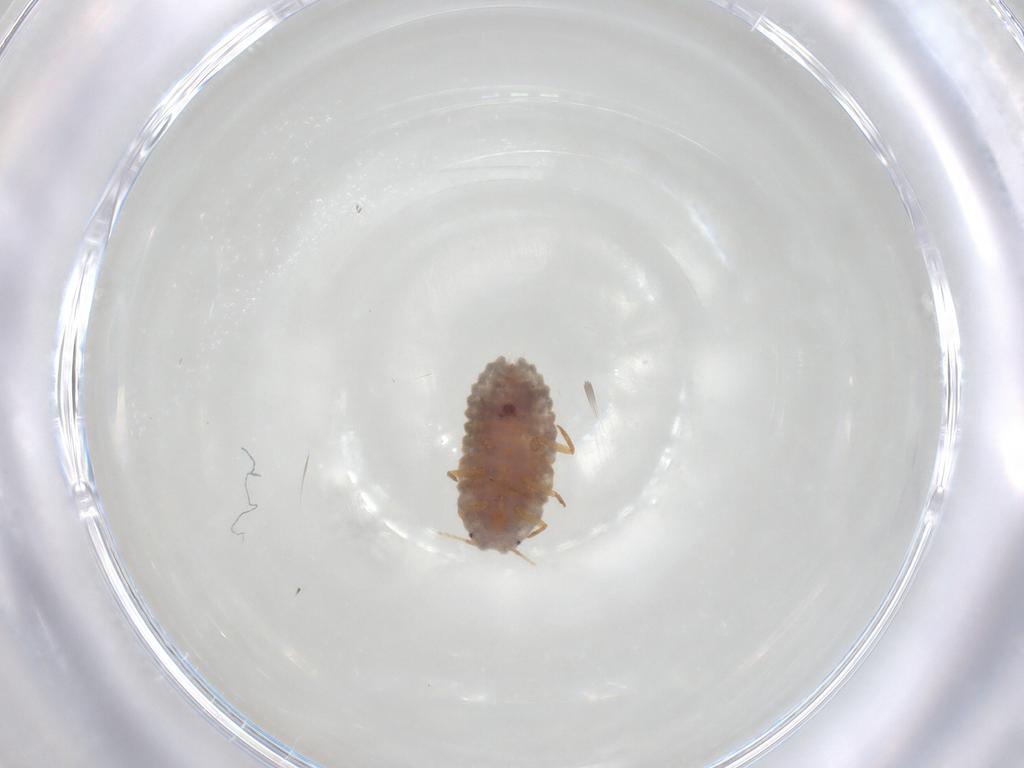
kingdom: Animalia
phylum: Arthropoda
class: Insecta
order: Hemiptera
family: Pseudococcidae
